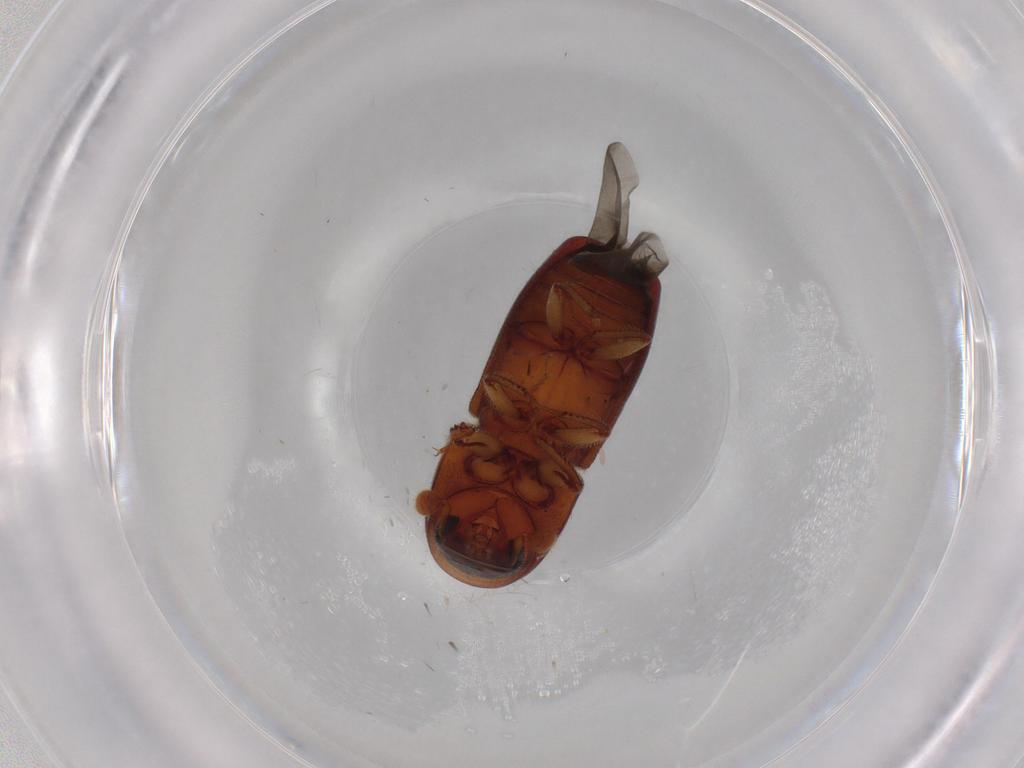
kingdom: Animalia
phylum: Arthropoda
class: Insecta
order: Coleoptera
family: Curculionidae
